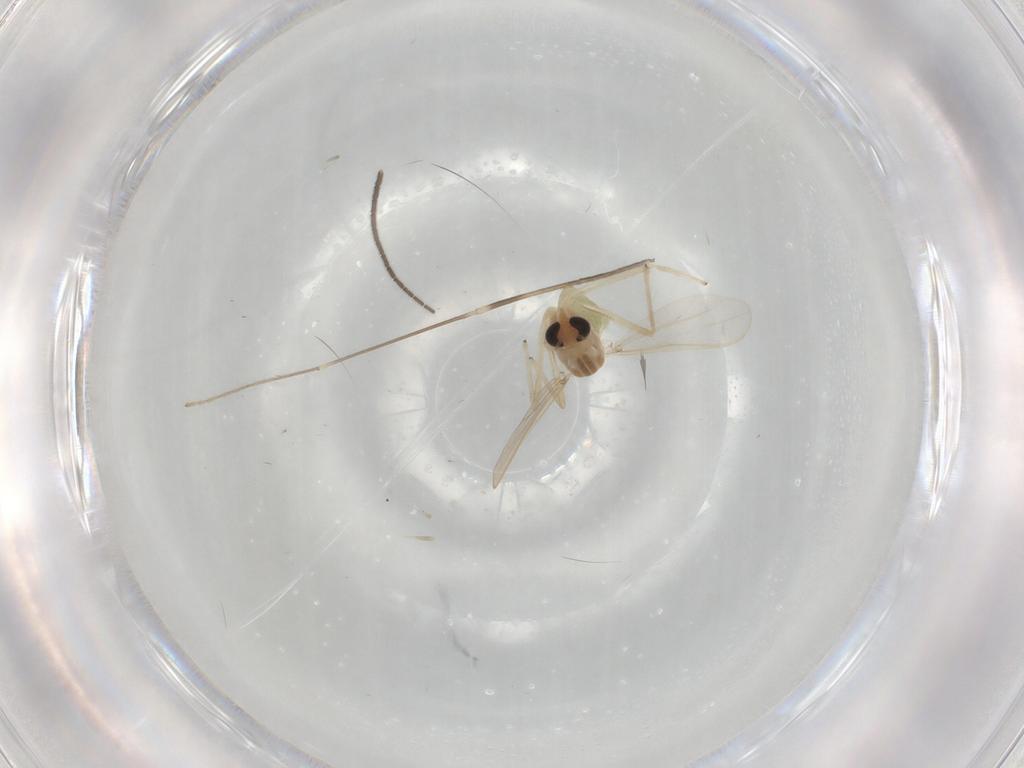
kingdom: Animalia
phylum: Arthropoda
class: Insecta
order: Diptera
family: Chironomidae
